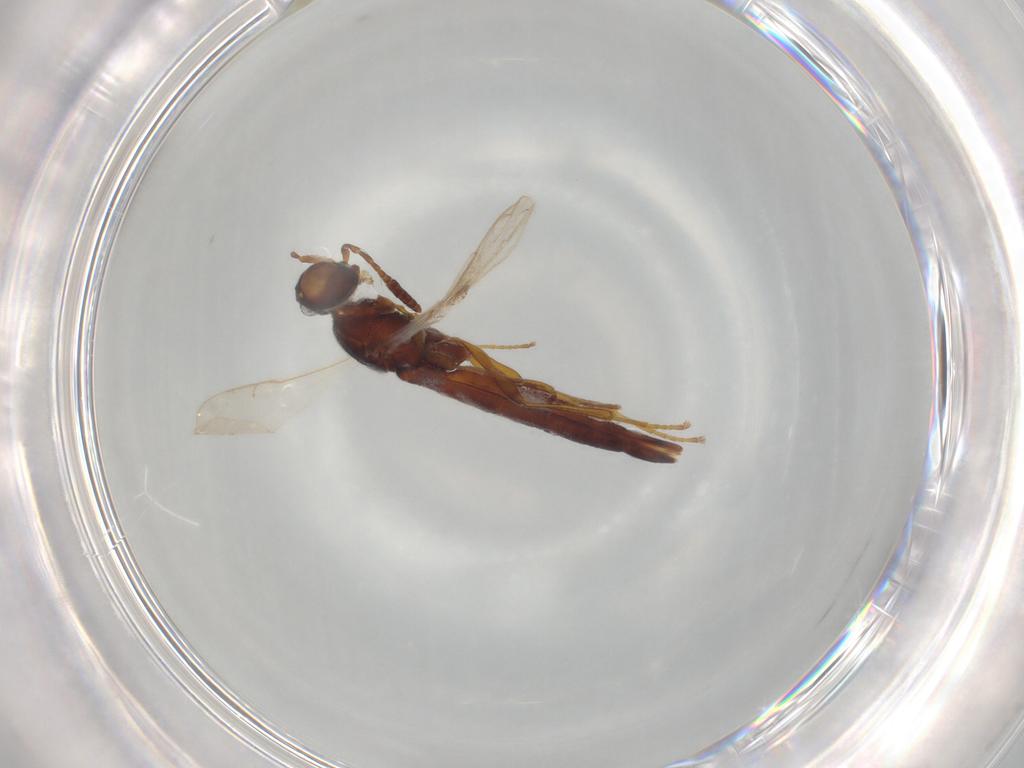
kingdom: Animalia
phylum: Arthropoda
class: Insecta
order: Hymenoptera
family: Scelionidae
